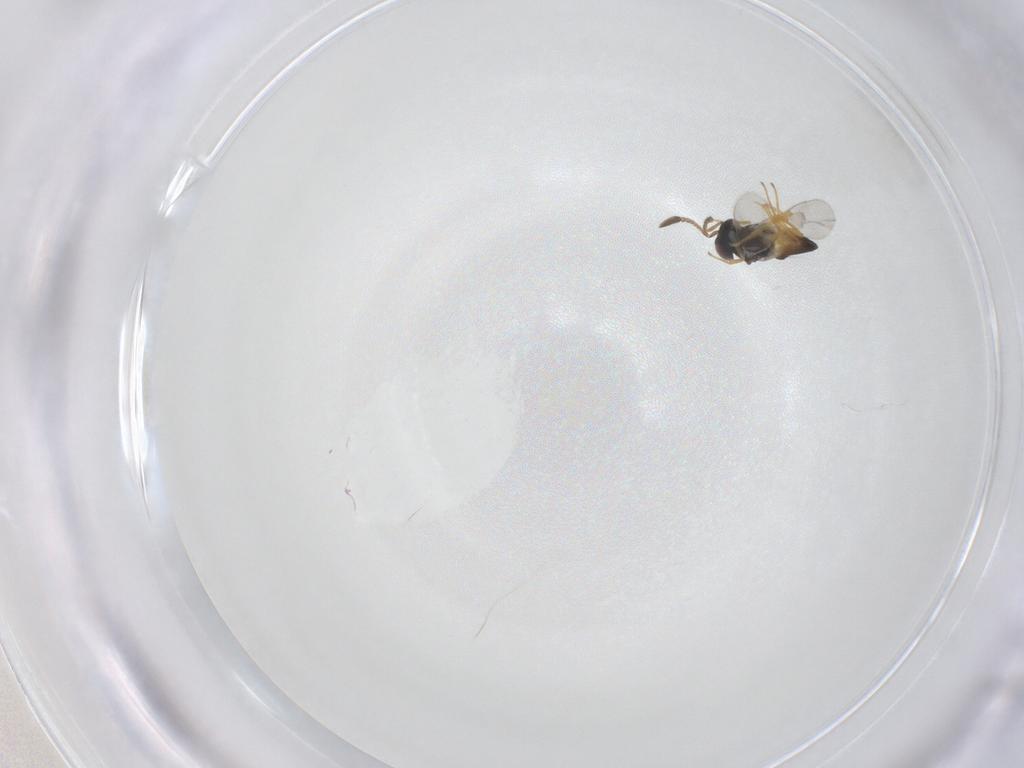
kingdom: Animalia
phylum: Arthropoda
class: Insecta
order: Hymenoptera
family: Encyrtidae
